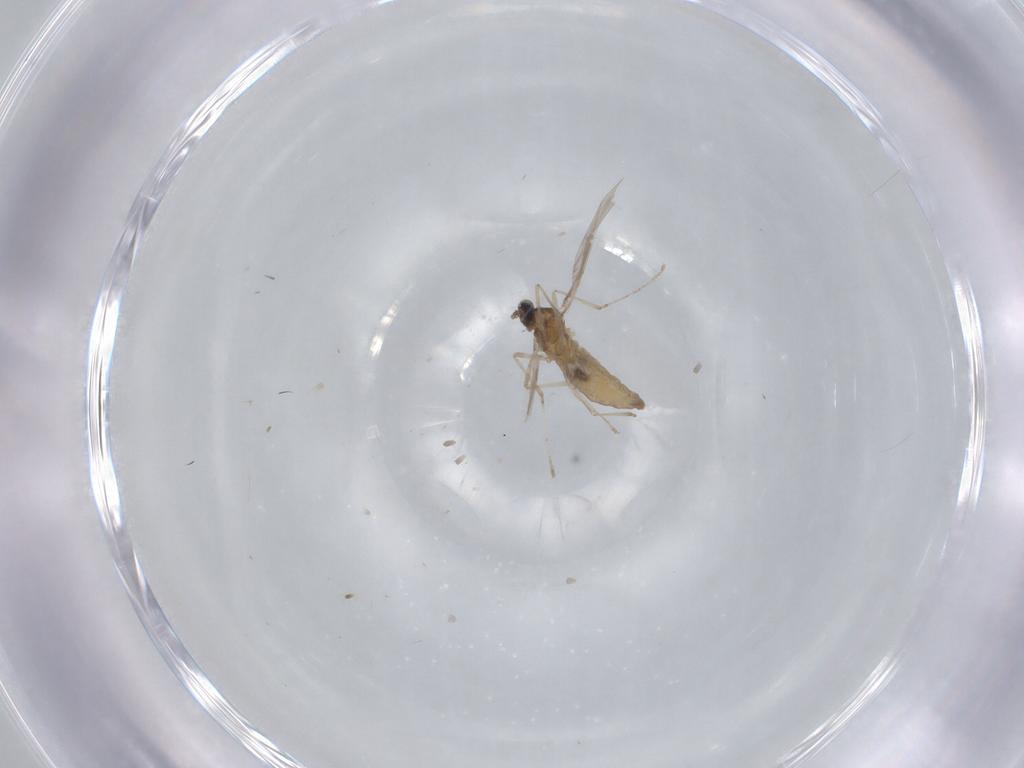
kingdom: Animalia
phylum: Arthropoda
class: Insecta
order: Diptera
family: Cecidomyiidae
